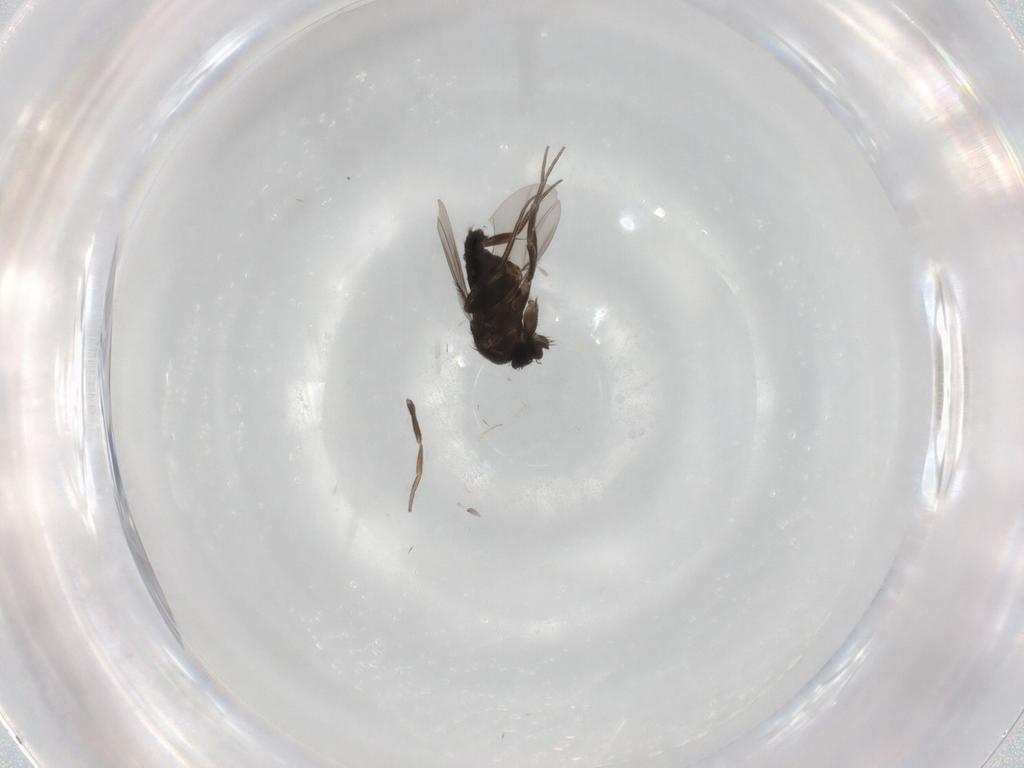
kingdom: Animalia
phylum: Arthropoda
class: Insecta
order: Diptera
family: Phoridae
